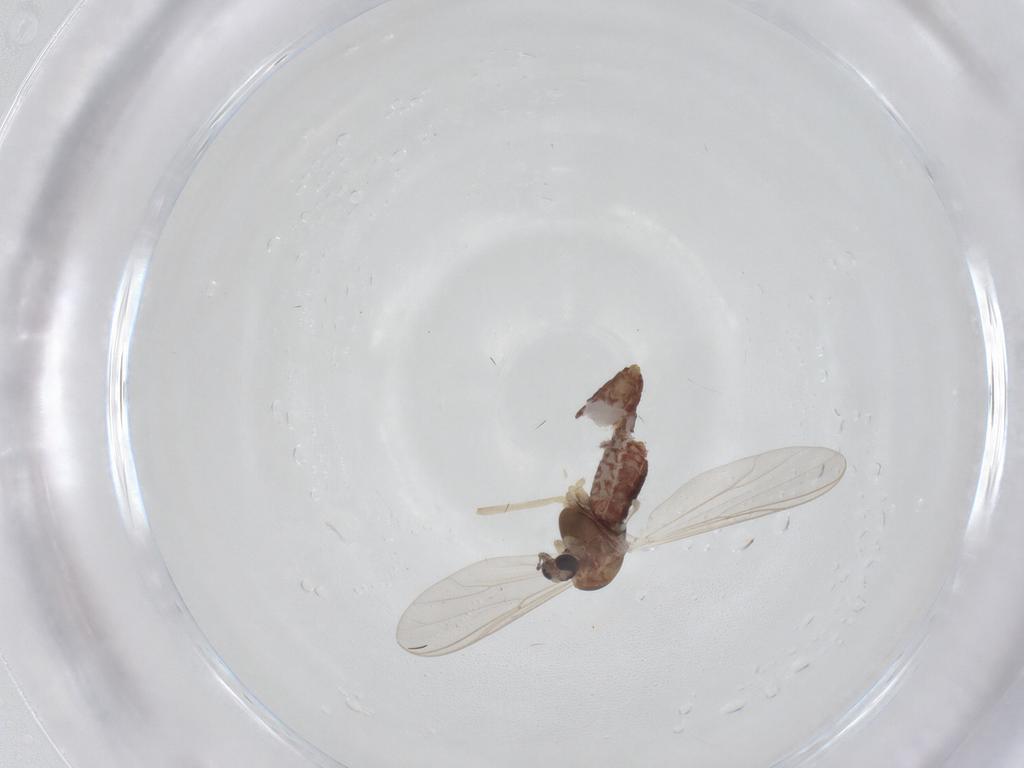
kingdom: Animalia
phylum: Arthropoda
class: Insecta
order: Diptera
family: Chironomidae
